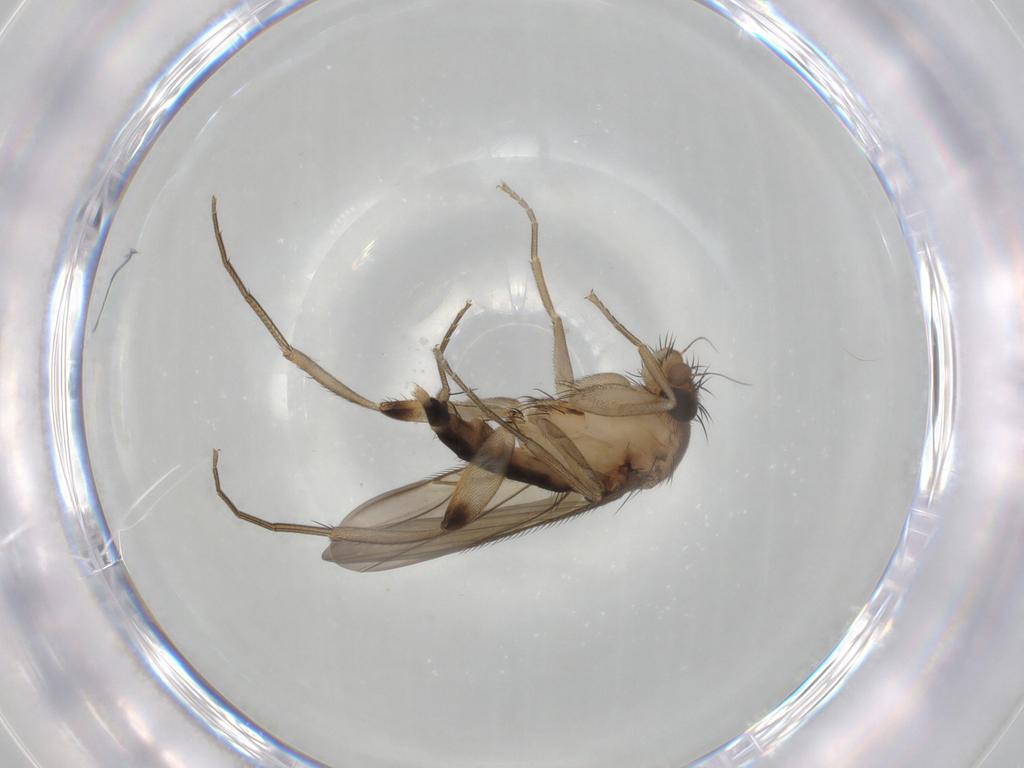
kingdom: Animalia
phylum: Arthropoda
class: Insecta
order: Diptera
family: Phoridae
